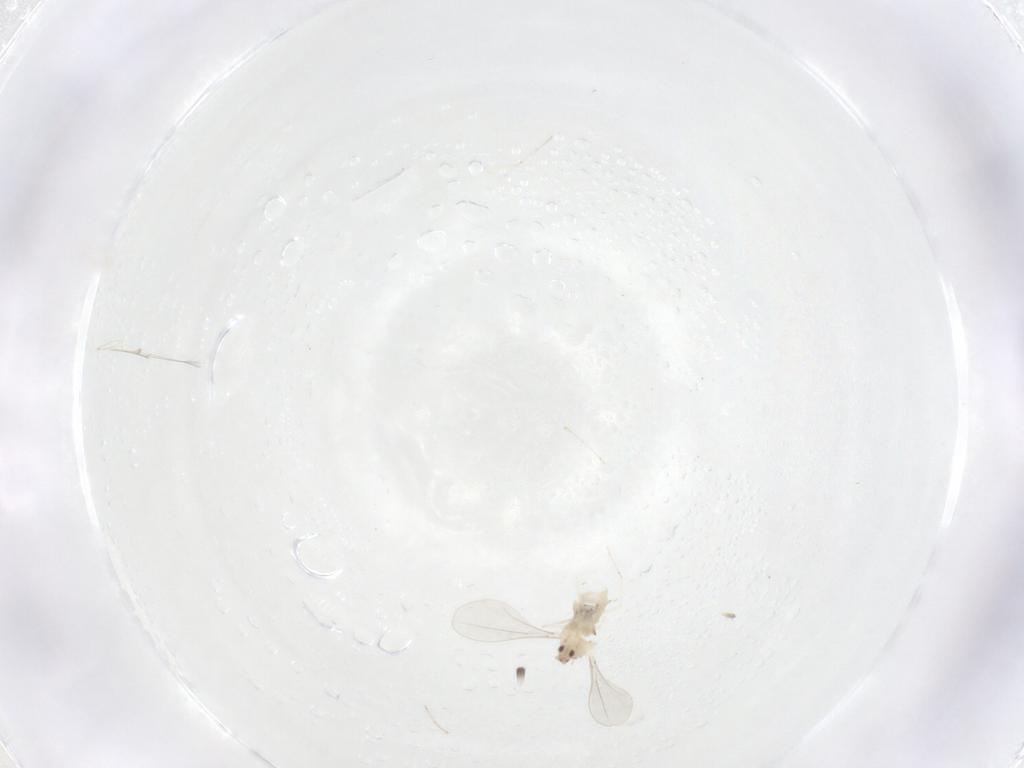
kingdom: Animalia
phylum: Arthropoda
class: Insecta
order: Diptera
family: Cecidomyiidae
